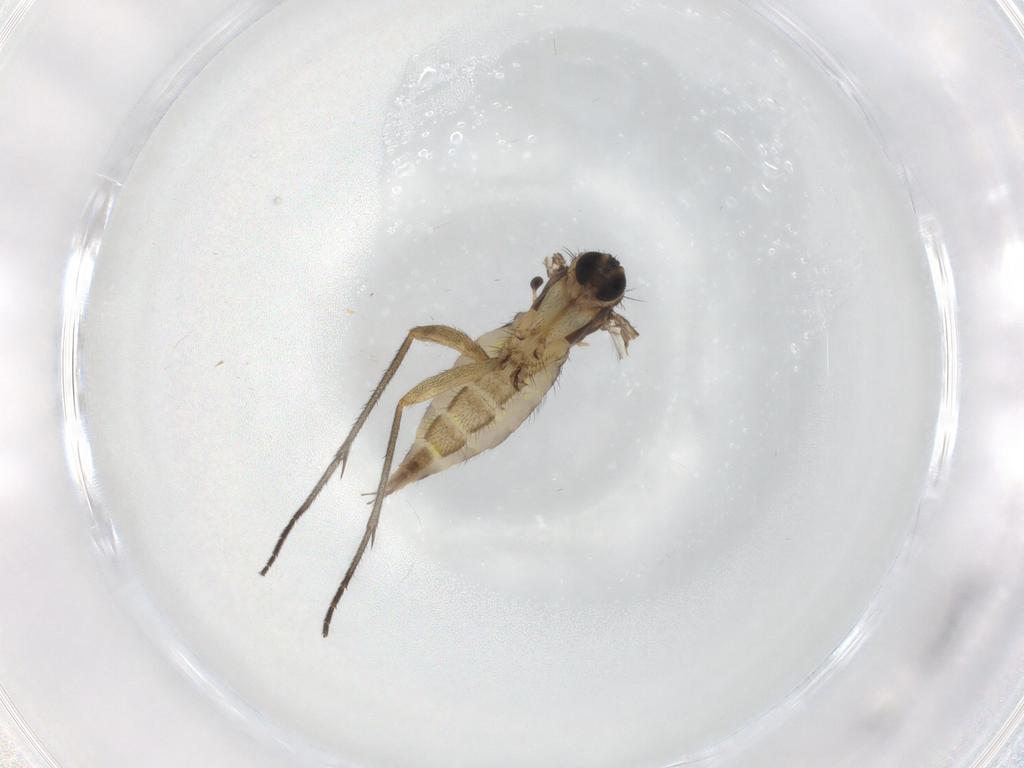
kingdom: Animalia
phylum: Arthropoda
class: Insecta
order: Diptera
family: Sciaridae
